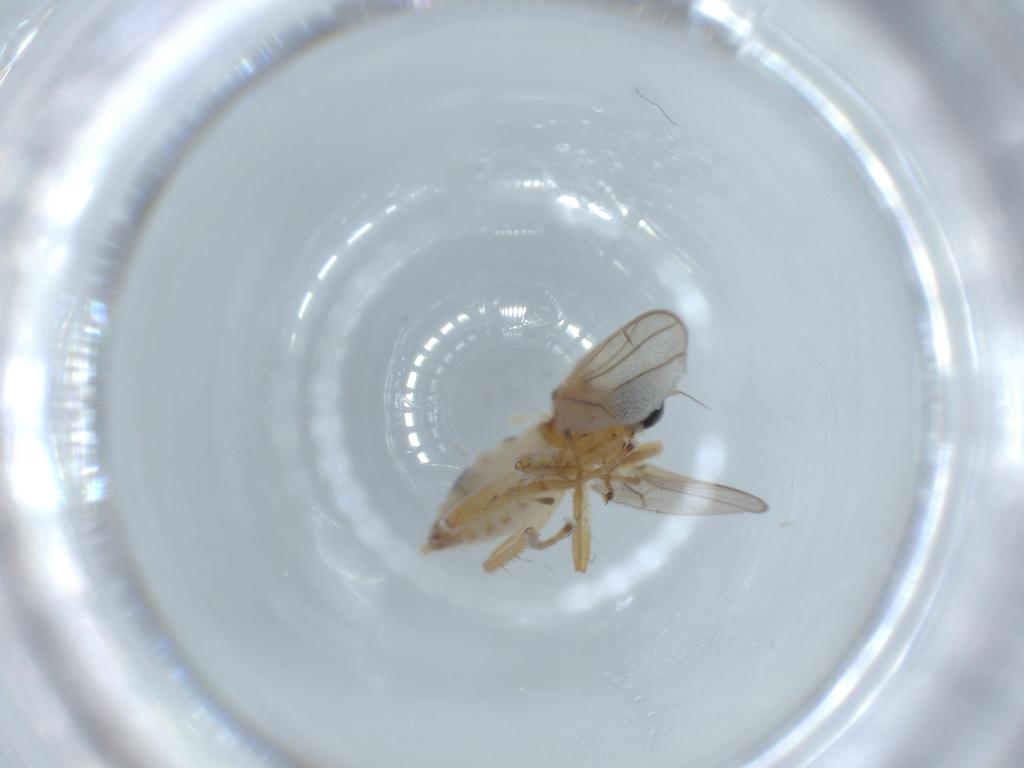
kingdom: Animalia
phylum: Arthropoda
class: Insecta
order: Diptera
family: Hybotidae
